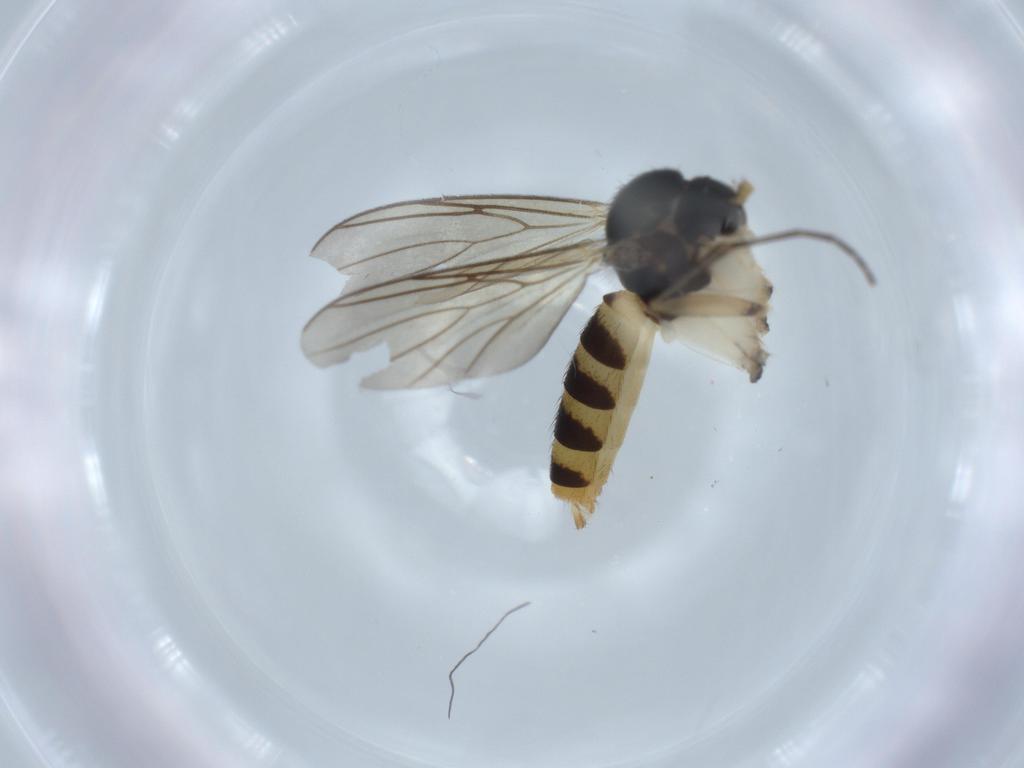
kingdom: Animalia
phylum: Arthropoda
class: Insecta
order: Diptera
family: Mycetophilidae
